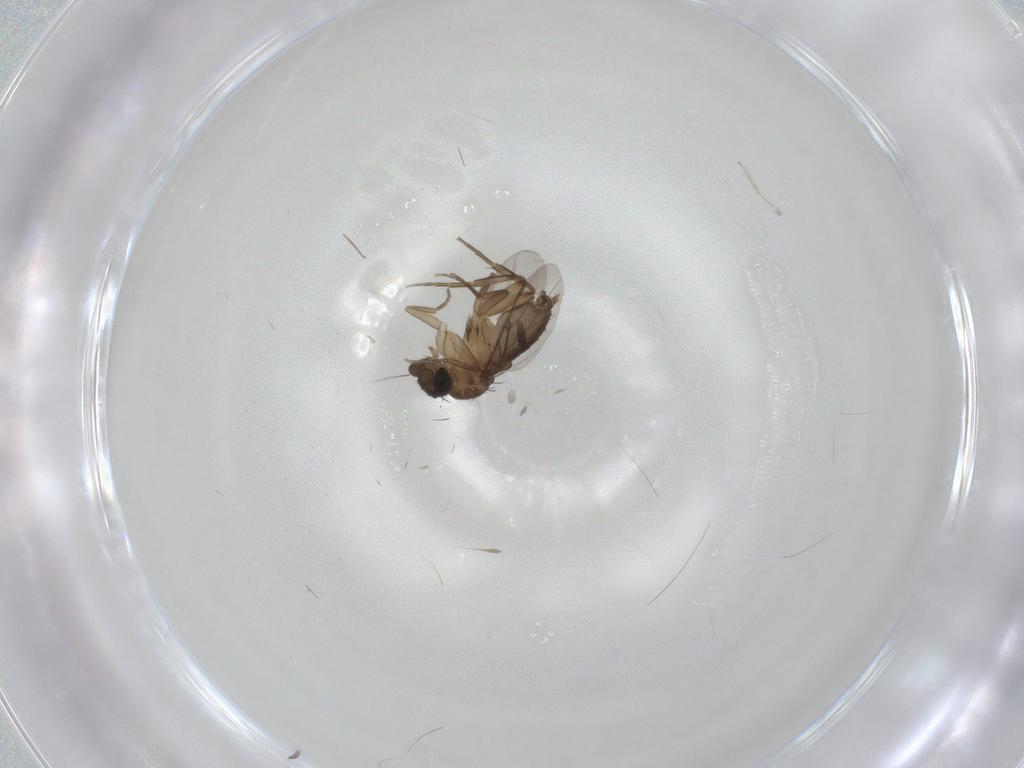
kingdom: Animalia
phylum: Arthropoda
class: Insecta
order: Diptera
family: Phoridae
